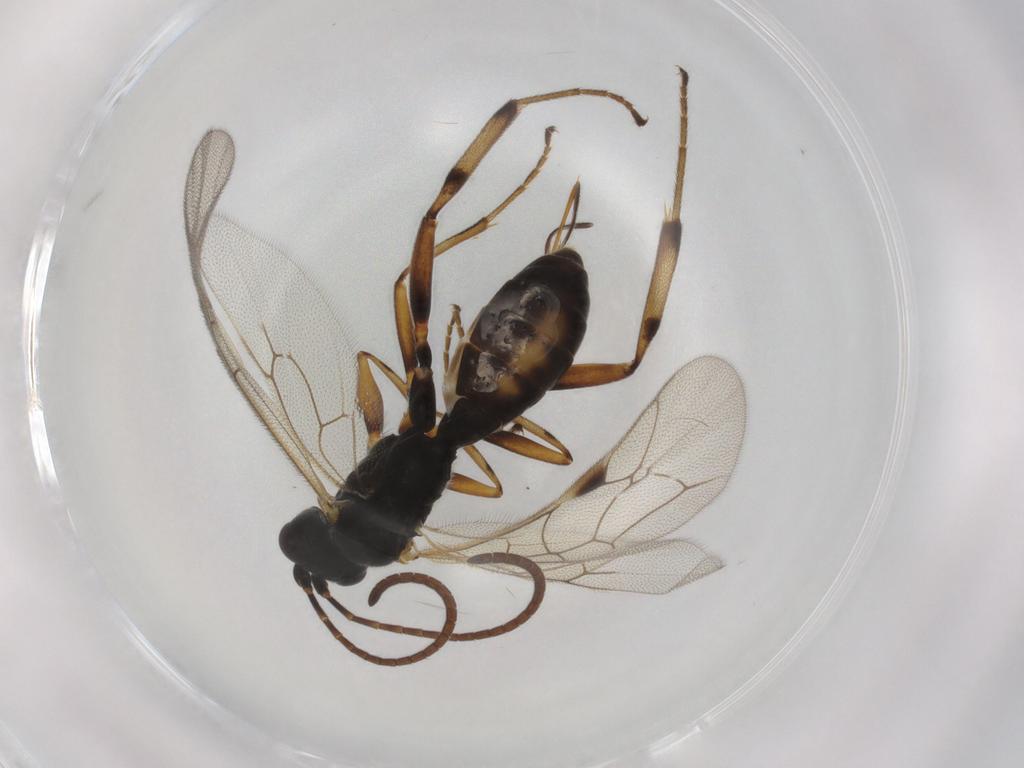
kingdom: Animalia
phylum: Arthropoda
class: Insecta
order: Hymenoptera
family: Ichneumonidae
